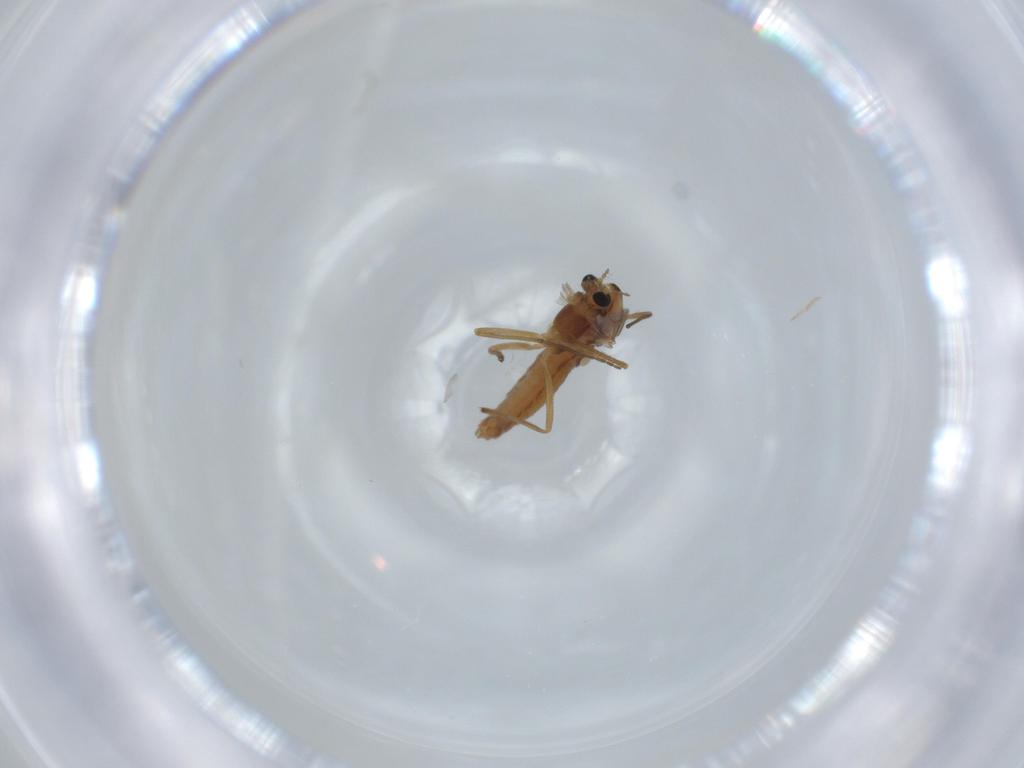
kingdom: Animalia
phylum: Arthropoda
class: Insecta
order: Diptera
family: Chironomidae
